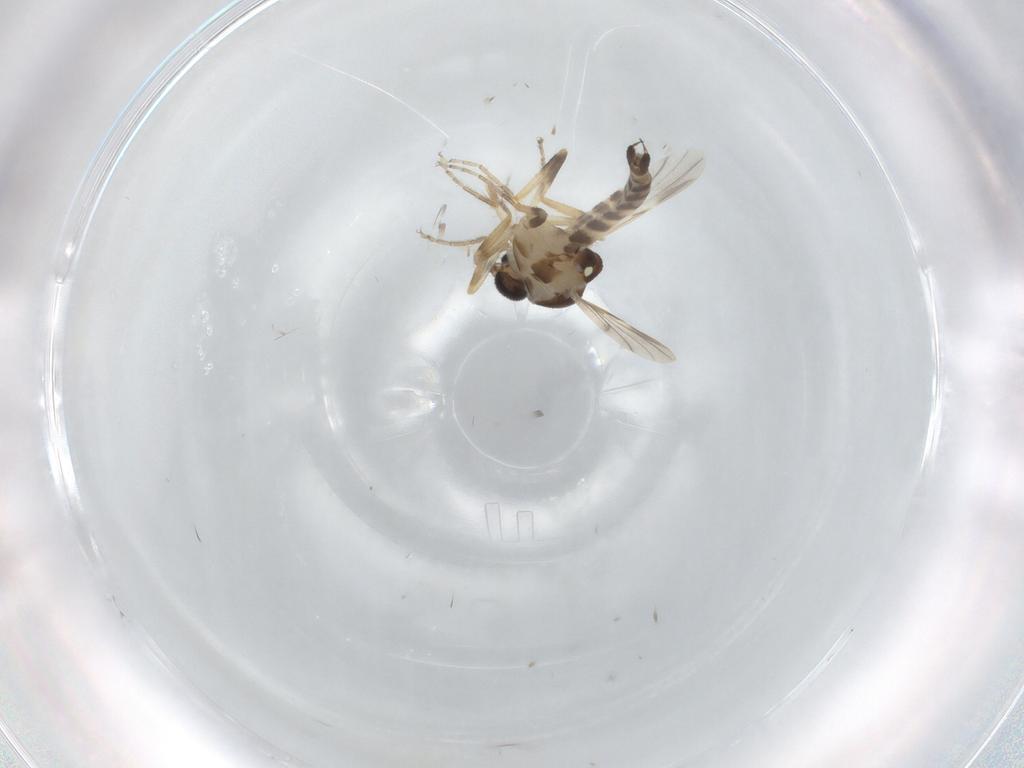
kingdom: Animalia
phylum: Arthropoda
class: Insecta
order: Diptera
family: Ceratopogonidae
